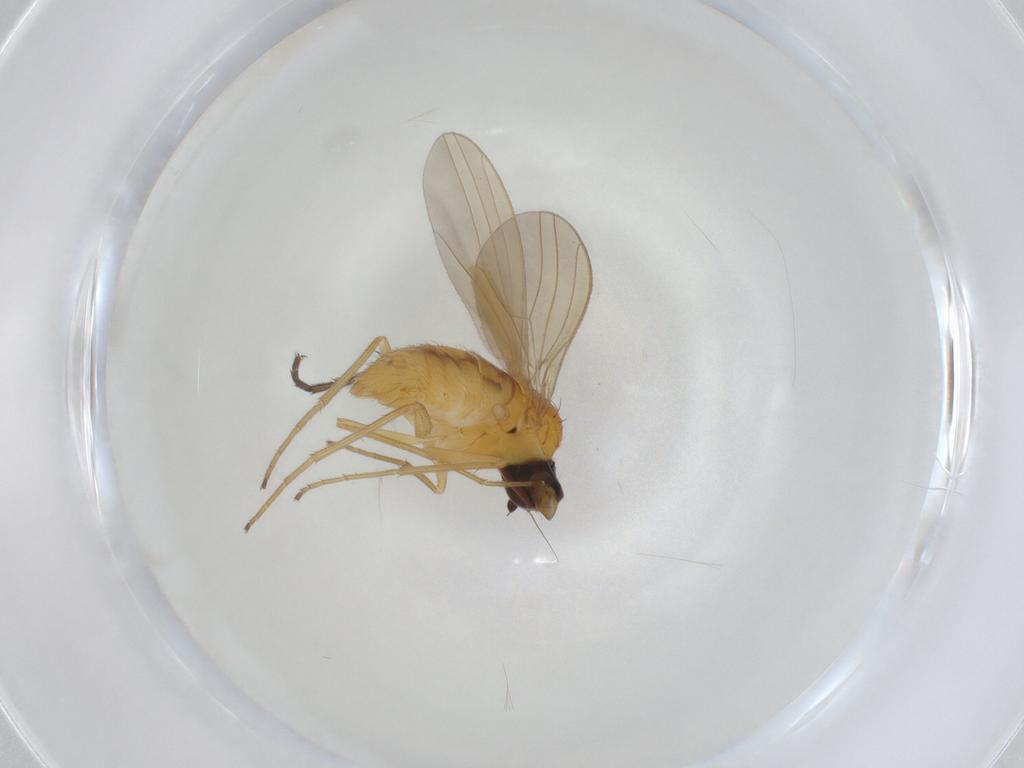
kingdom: Animalia
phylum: Arthropoda
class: Insecta
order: Diptera
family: Dolichopodidae
